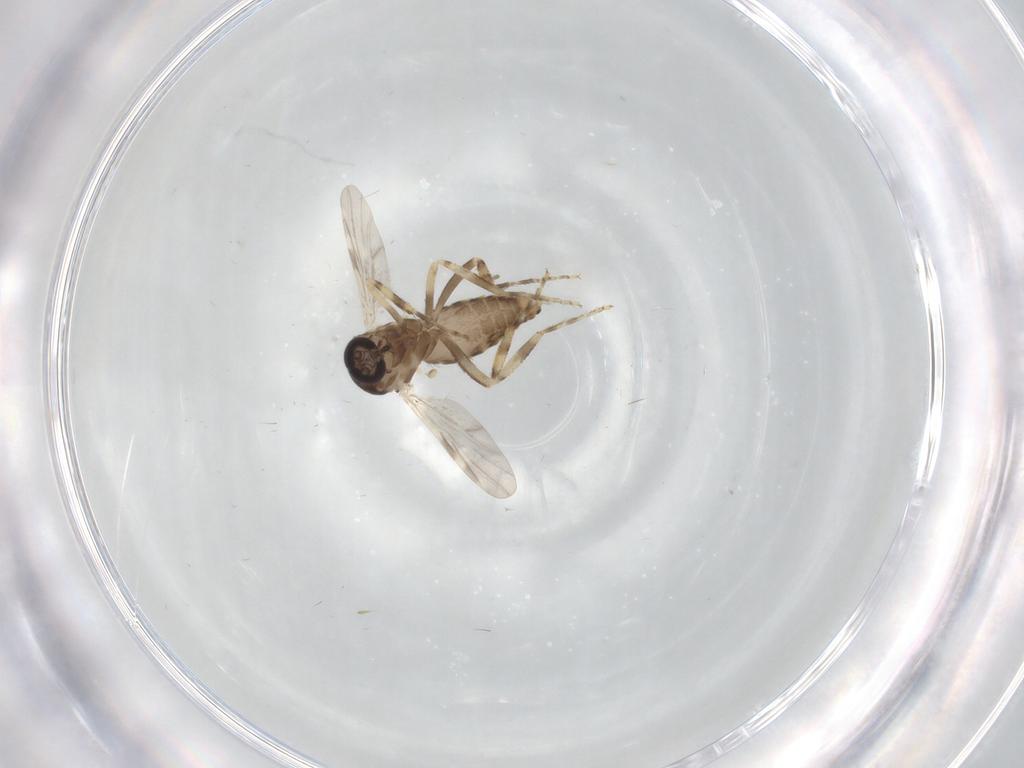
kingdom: Animalia
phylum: Arthropoda
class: Insecta
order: Diptera
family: Ceratopogonidae
